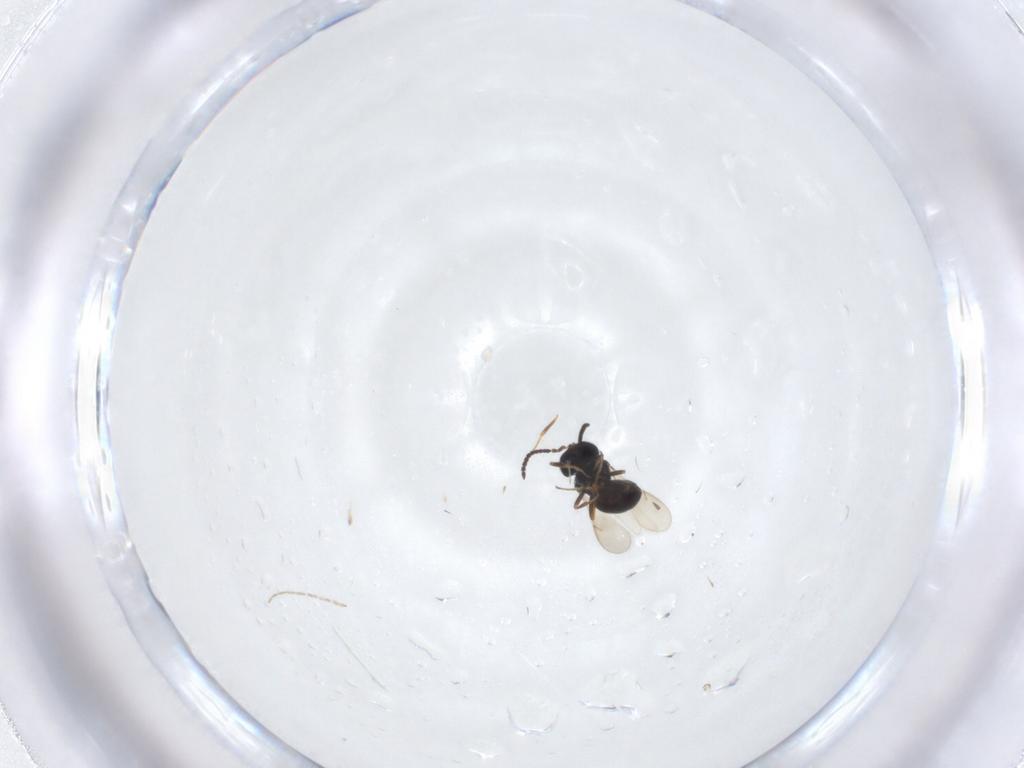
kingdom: Animalia
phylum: Arthropoda
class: Insecta
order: Hymenoptera
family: Scelionidae
